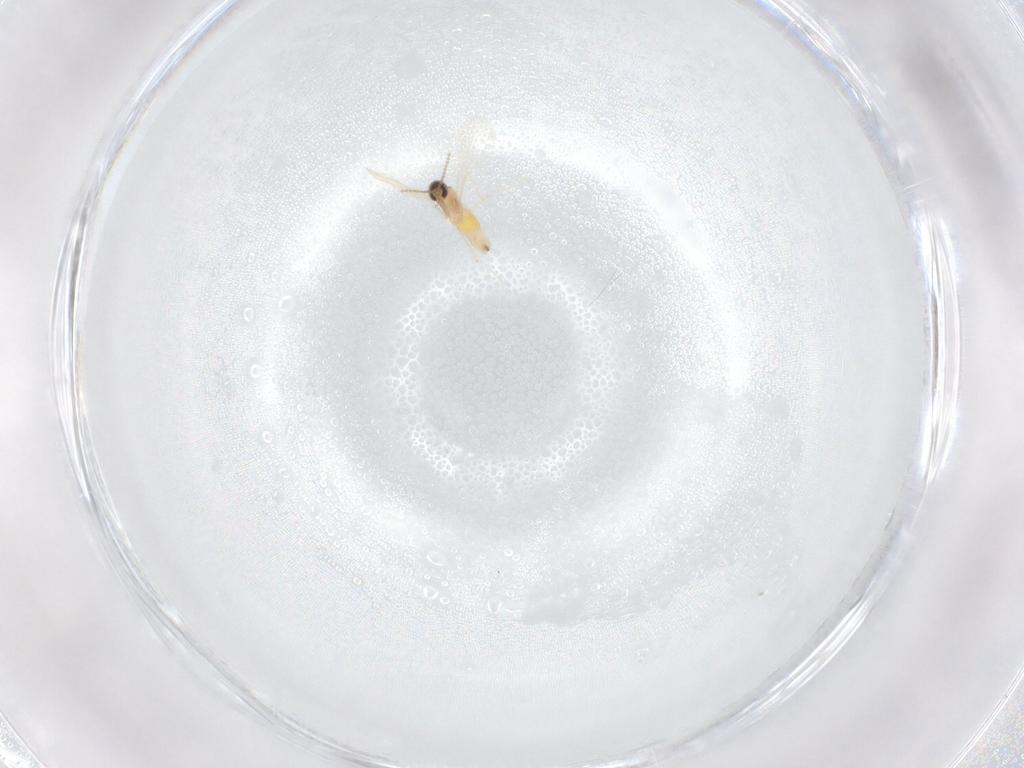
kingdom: Animalia
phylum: Arthropoda
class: Insecta
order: Diptera
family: Cecidomyiidae
